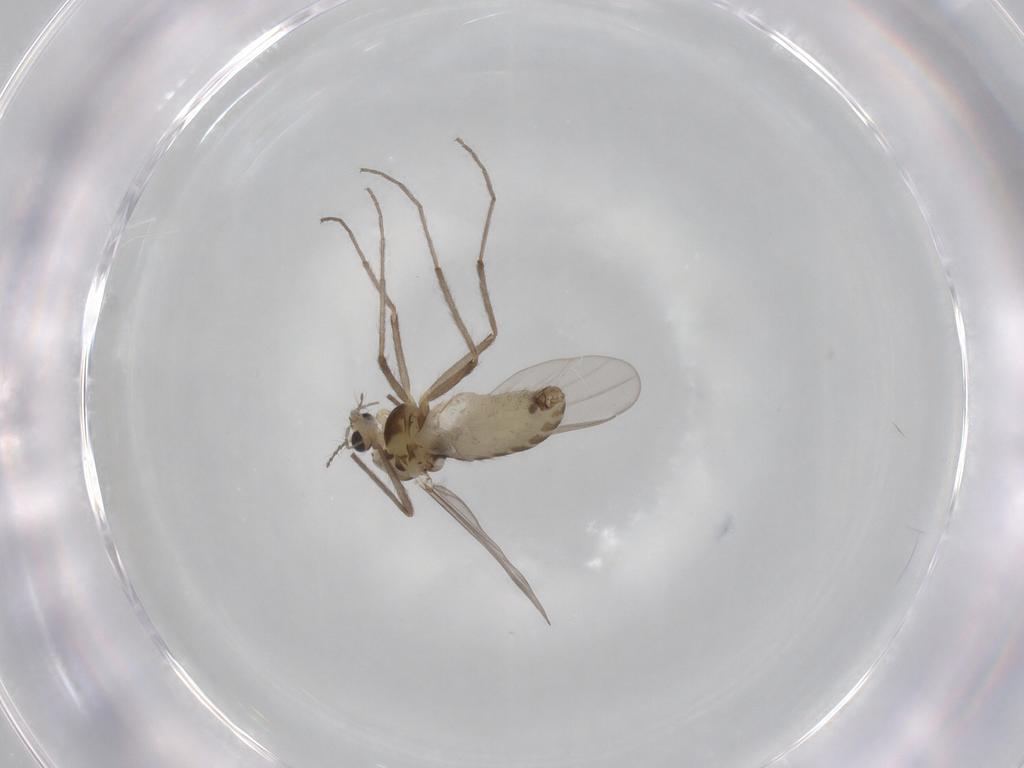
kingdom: Animalia
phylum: Arthropoda
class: Insecta
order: Diptera
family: Chironomidae
